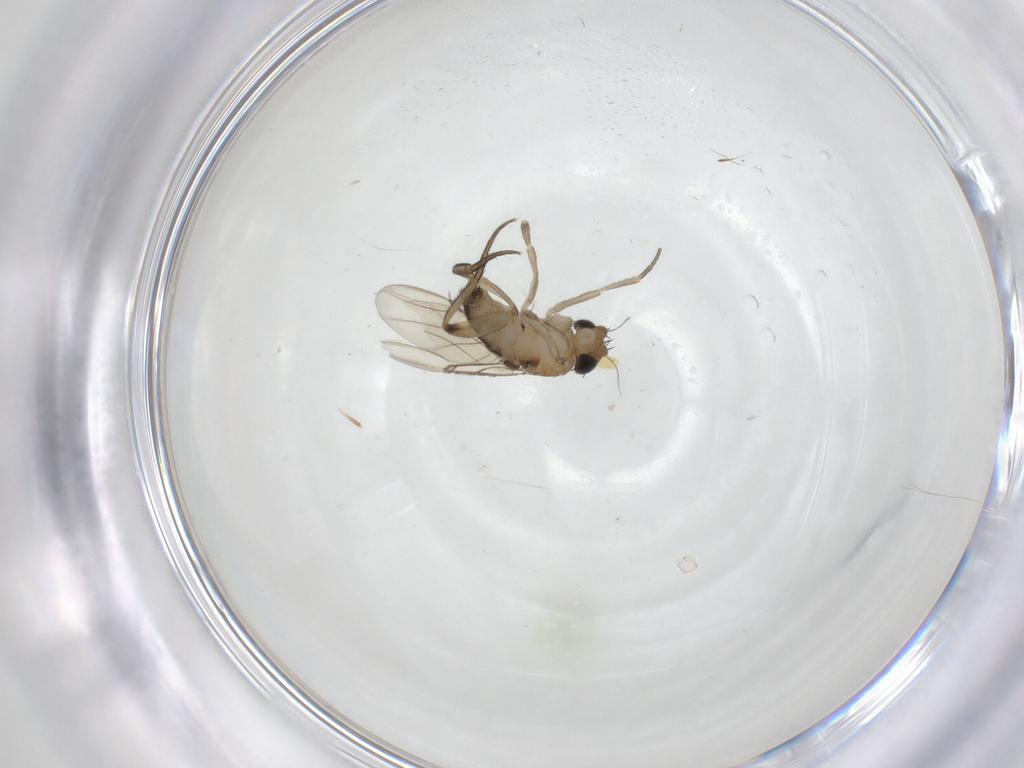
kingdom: Animalia
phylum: Arthropoda
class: Insecta
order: Diptera
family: Phoridae
